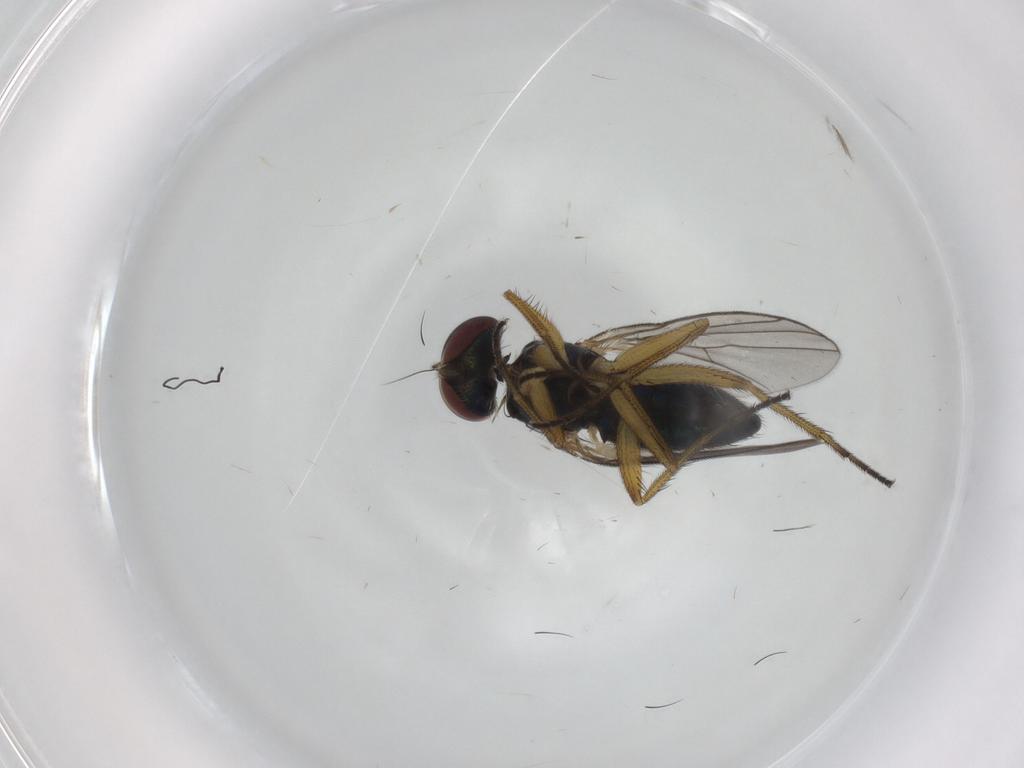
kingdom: Animalia
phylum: Arthropoda
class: Insecta
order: Diptera
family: Dolichopodidae
